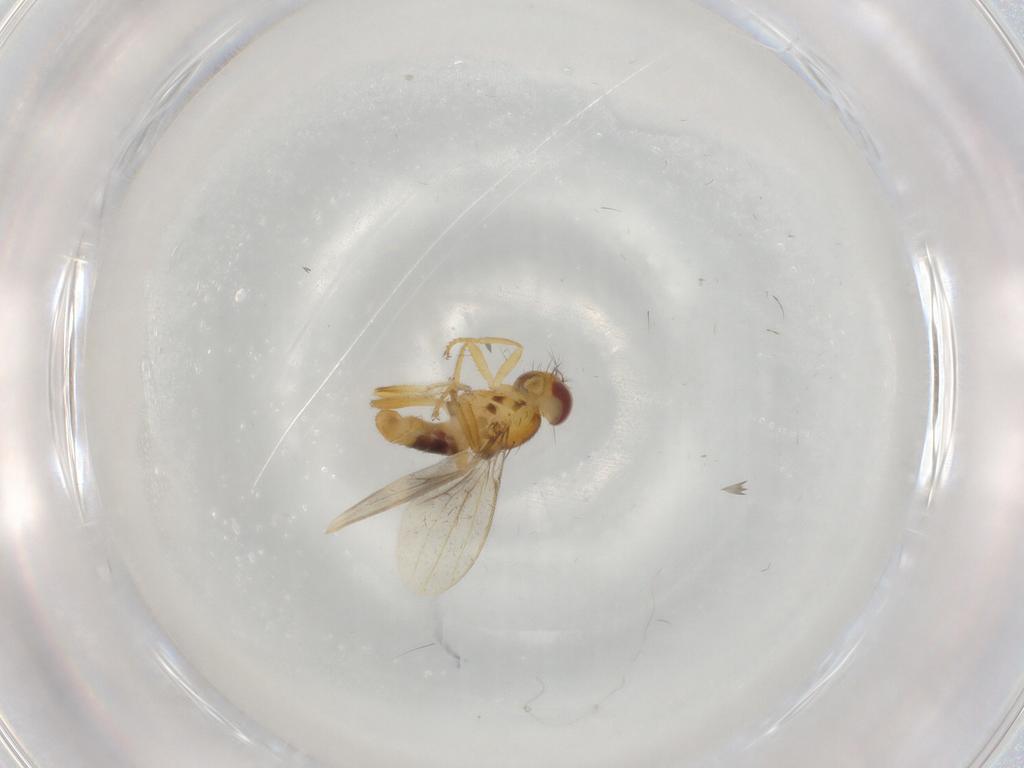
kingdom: Animalia
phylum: Arthropoda
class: Insecta
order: Diptera
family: Periscelididae
